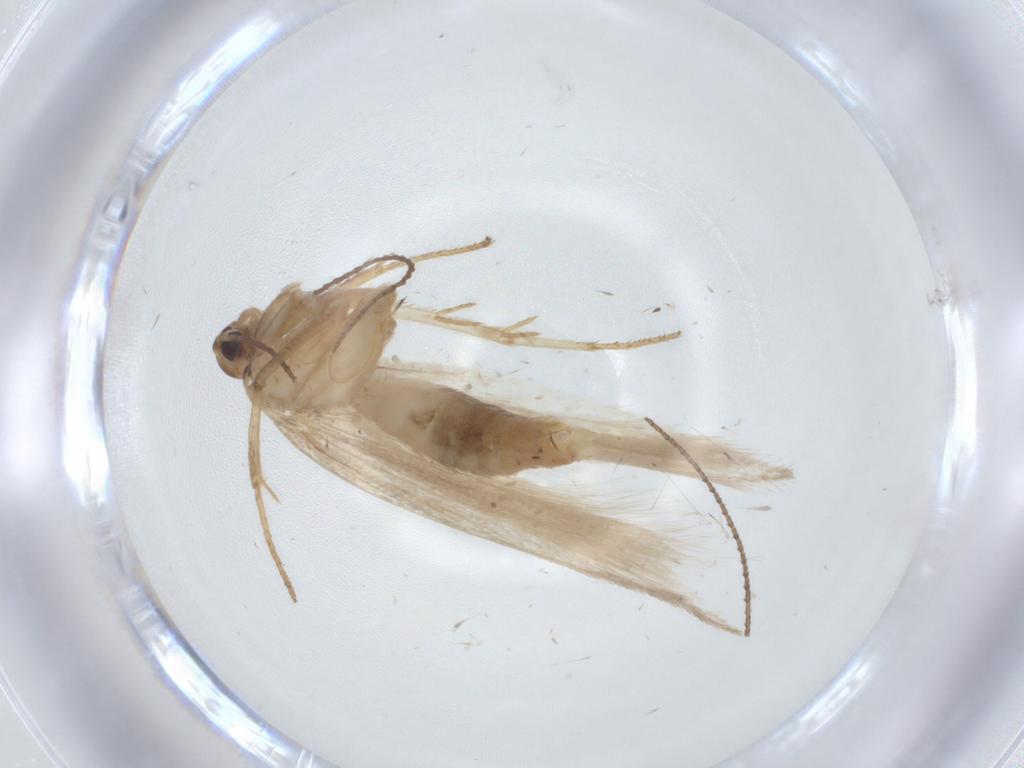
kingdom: Animalia
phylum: Arthropoda
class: Insecta
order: Lepidoptera
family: Gelechiidae
